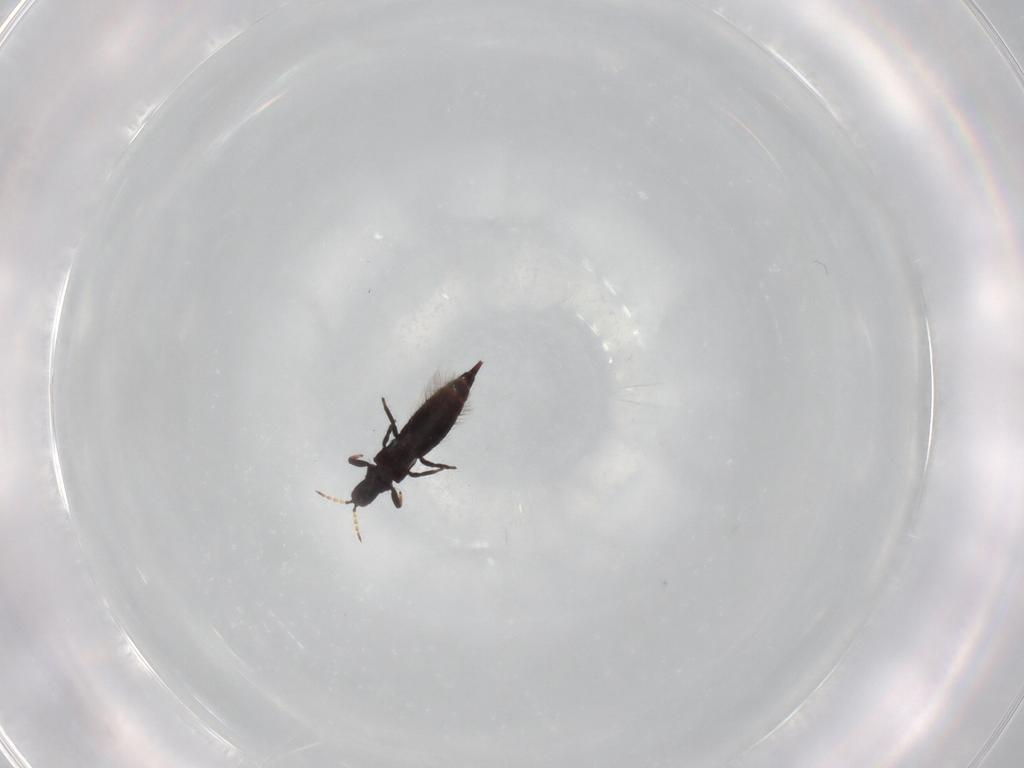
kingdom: Animalia
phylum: Arthropoda
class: Insecta
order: Thysanoptera
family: Phlaeothripidae
